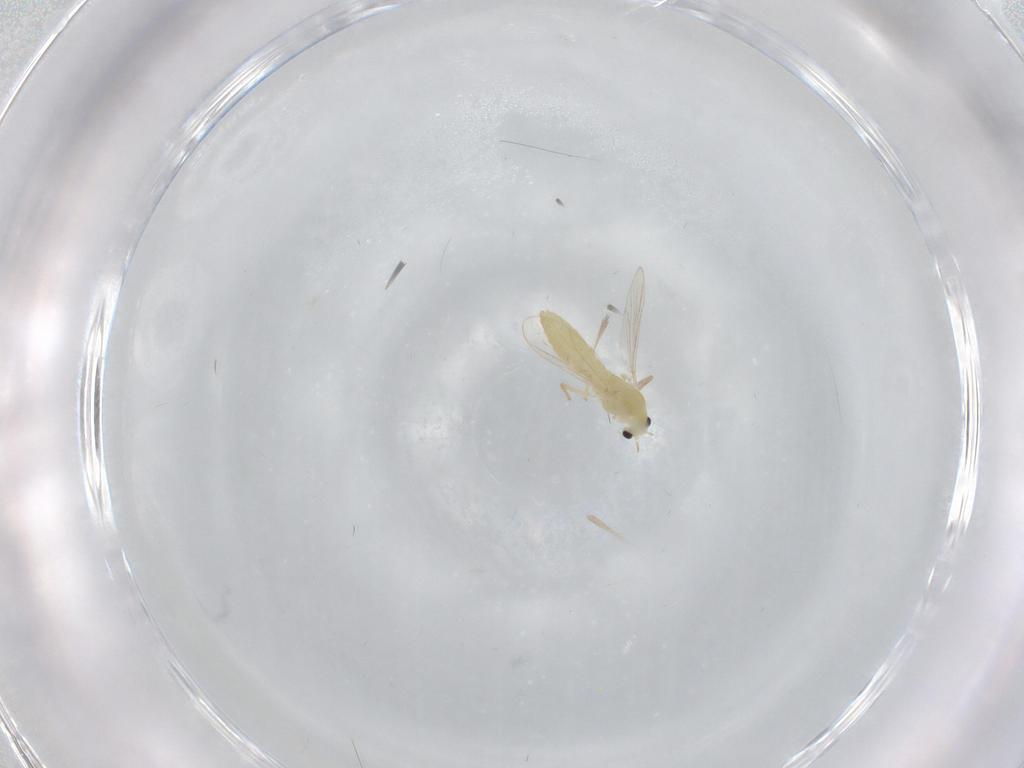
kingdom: Animalia
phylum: Arthropoda
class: Insecta
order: Diptera
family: Chironomidae
